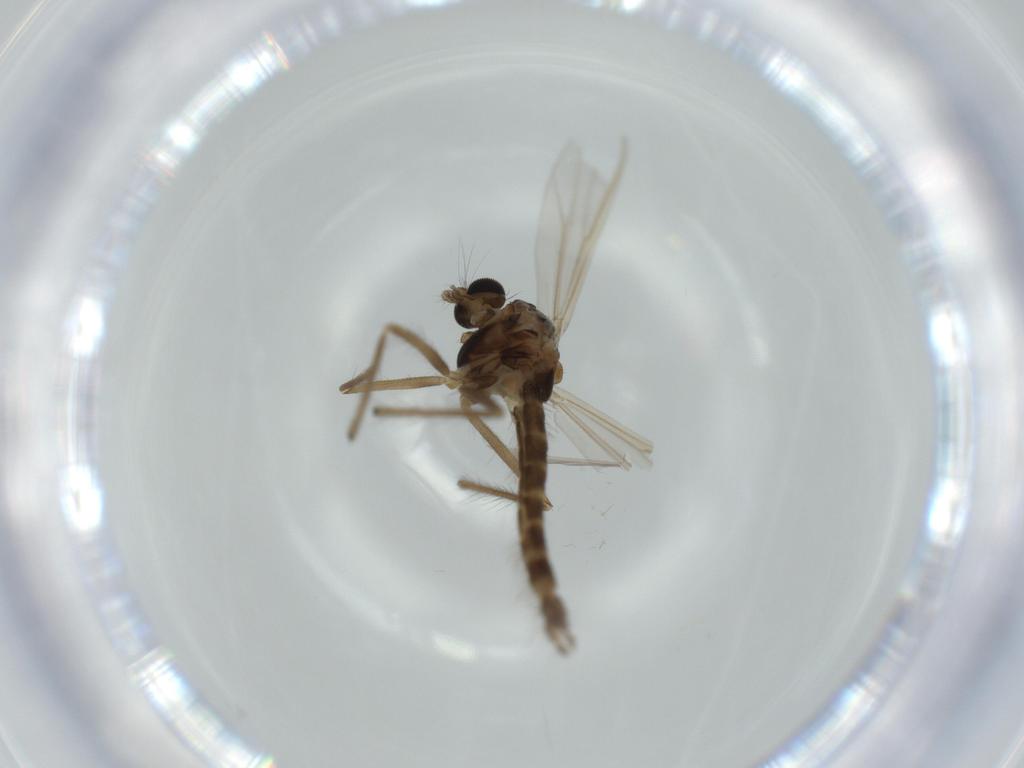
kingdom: Animalia
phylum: Arthropoda
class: Insecta
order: Diptera
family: Chironomidae
